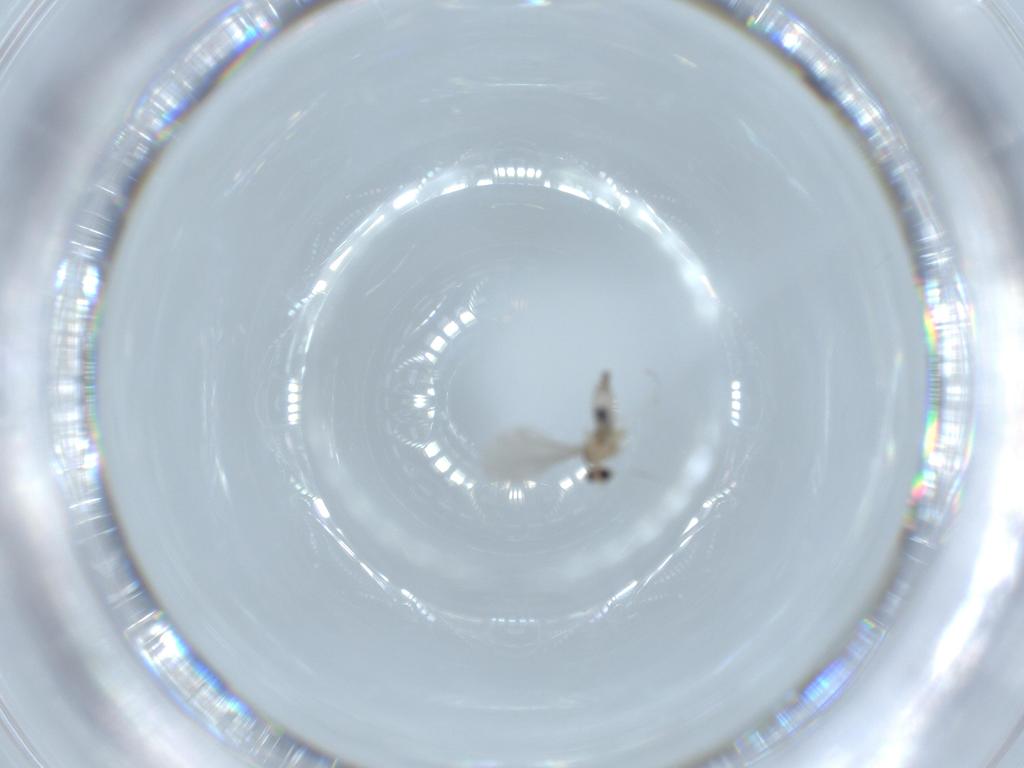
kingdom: Animalia
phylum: Arthropoda
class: Insecta
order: Diptera
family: Cecidomyiidae
